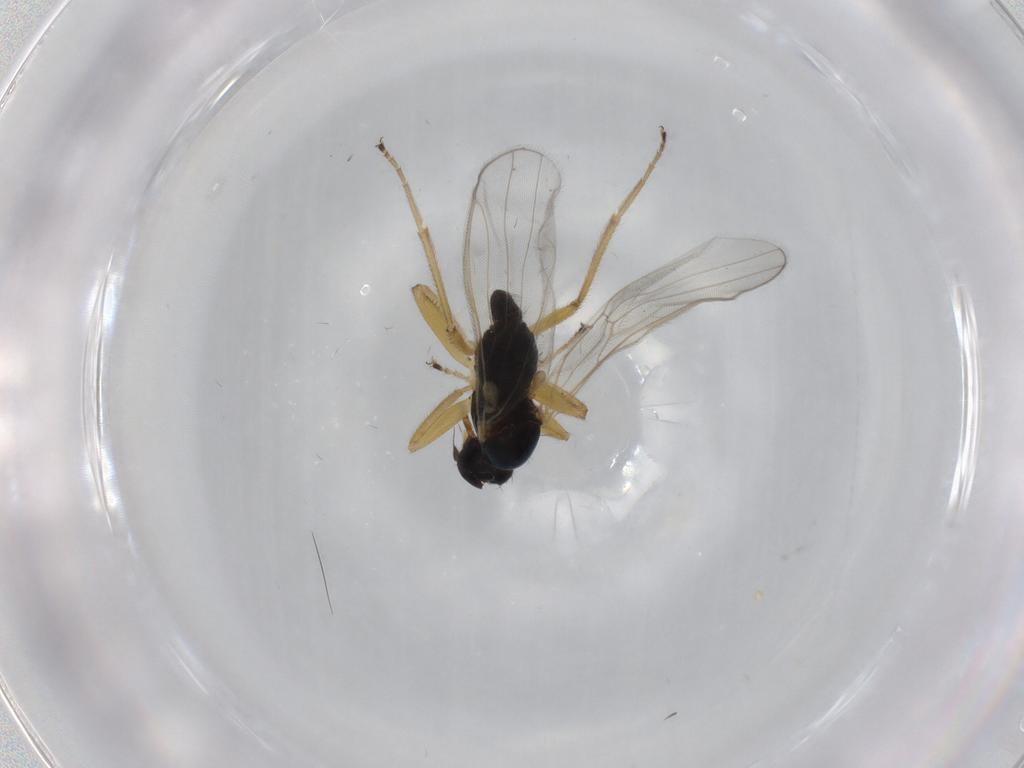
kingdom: Animalia
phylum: Arthropoda
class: Insecta
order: Diptera
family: Hybotidae
